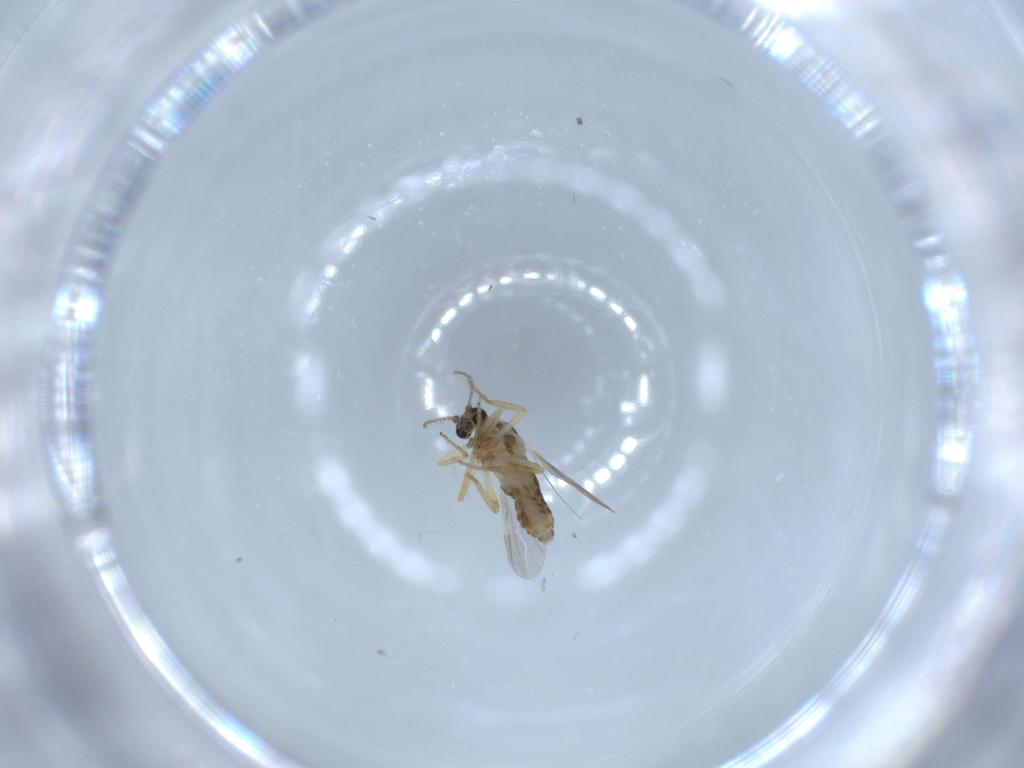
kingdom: Animalia
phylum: Arthropoda
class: Insecta
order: Diptera
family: Ceratopogonidae
